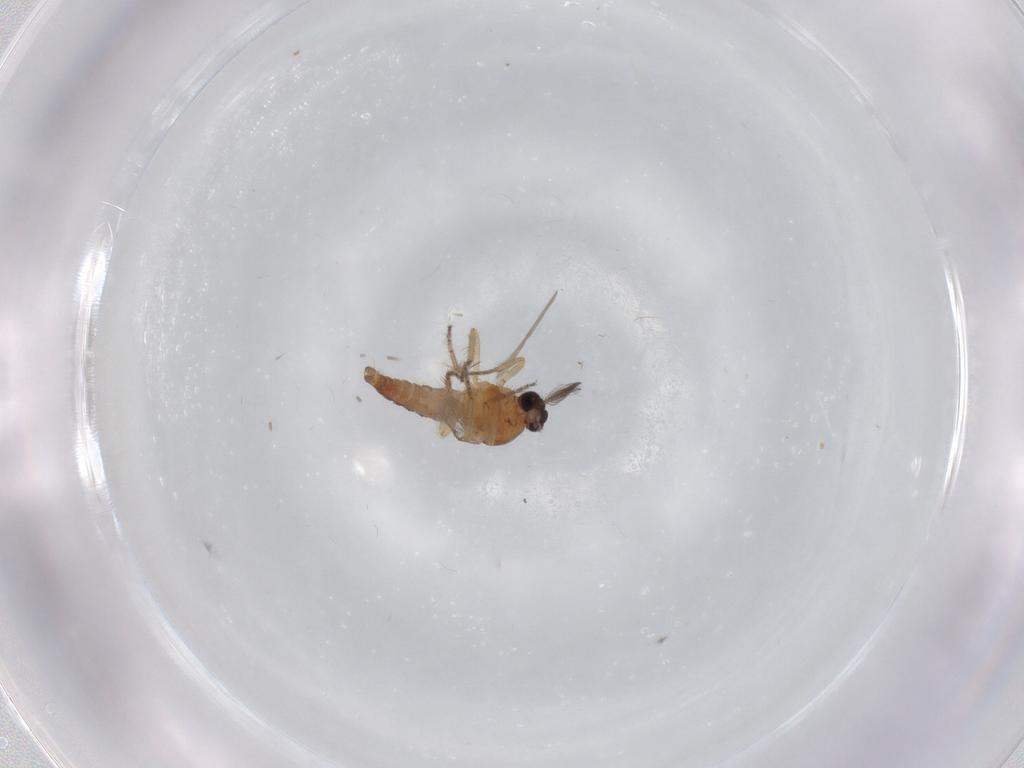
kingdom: Animalia
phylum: Arthropoda
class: Insecta
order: Diptera
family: Ceratopogonidae
